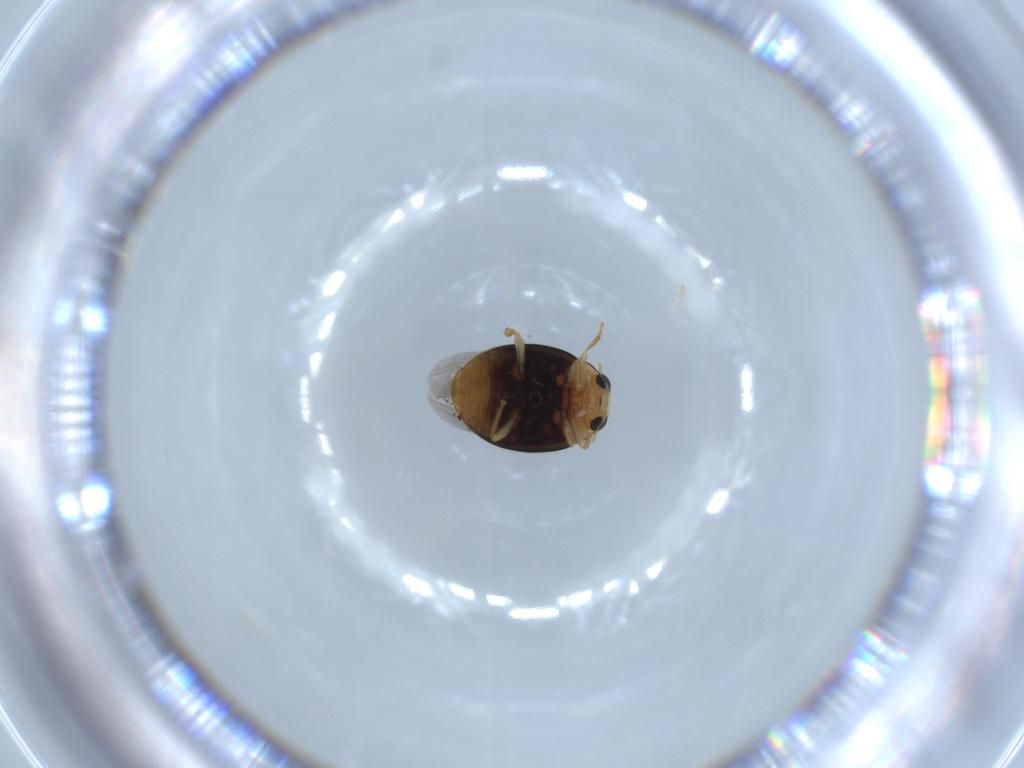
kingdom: Animalia
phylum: Arthropoda
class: Insecta
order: Coleoptera
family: Coccinellidae
